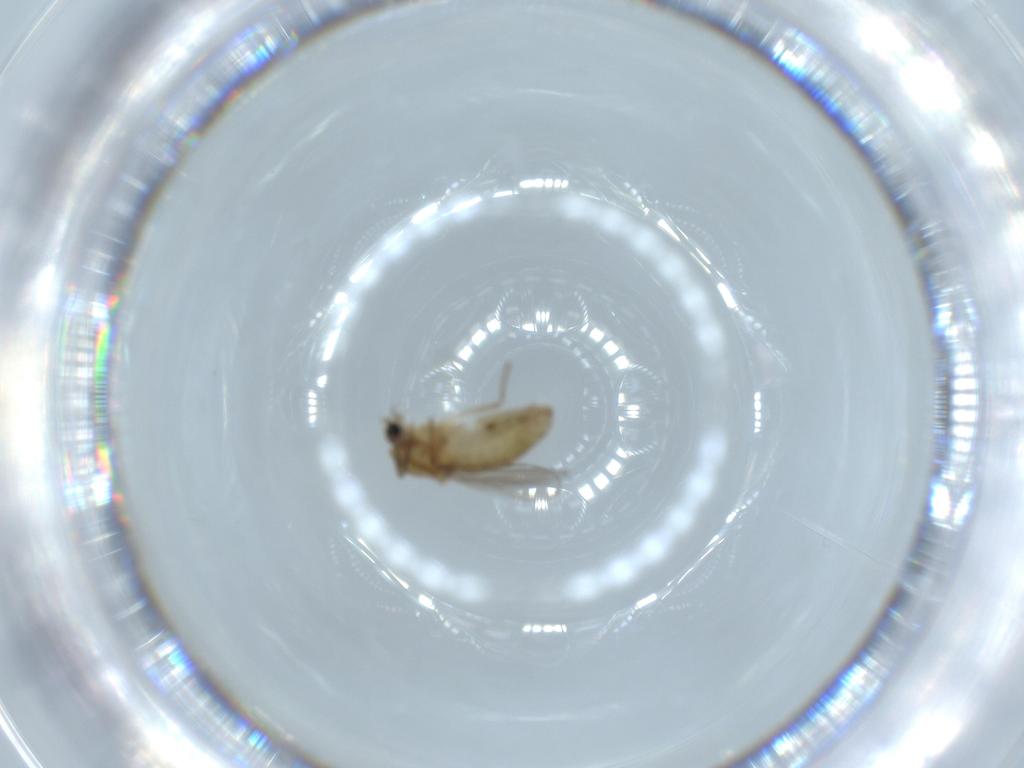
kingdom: Animalia
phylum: Arthropoda
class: Insecta
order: Diptera
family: Chironomidae
